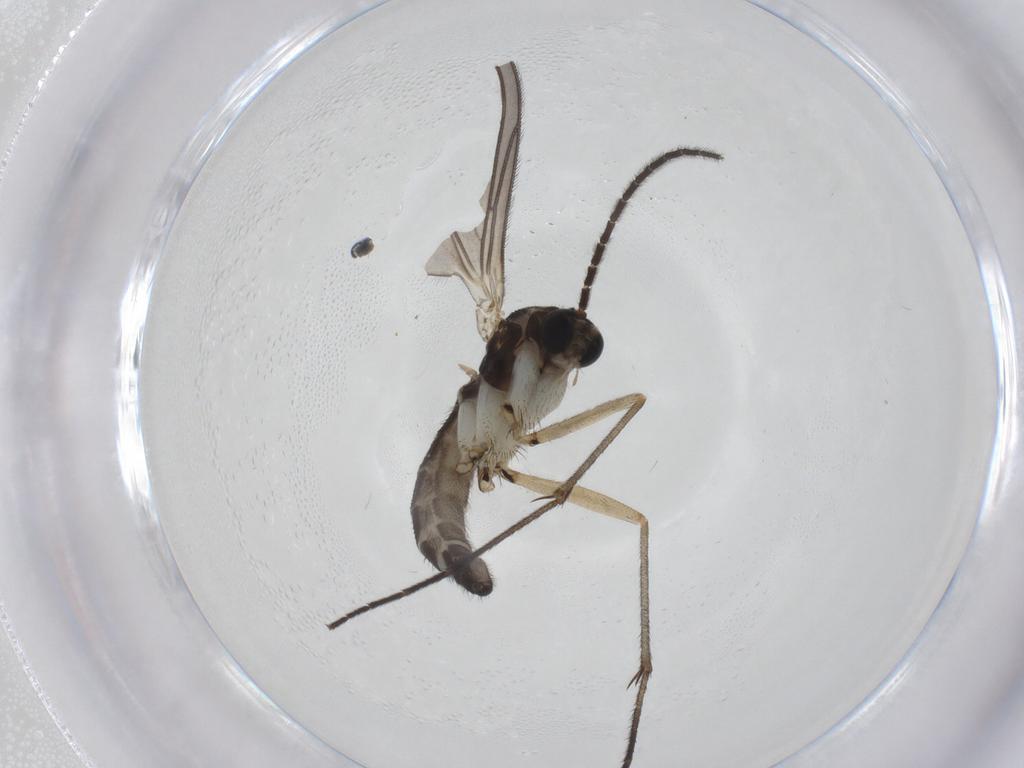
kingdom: Animalia
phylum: Arthropoda
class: Insecta
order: Diptera
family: Sciaridae
